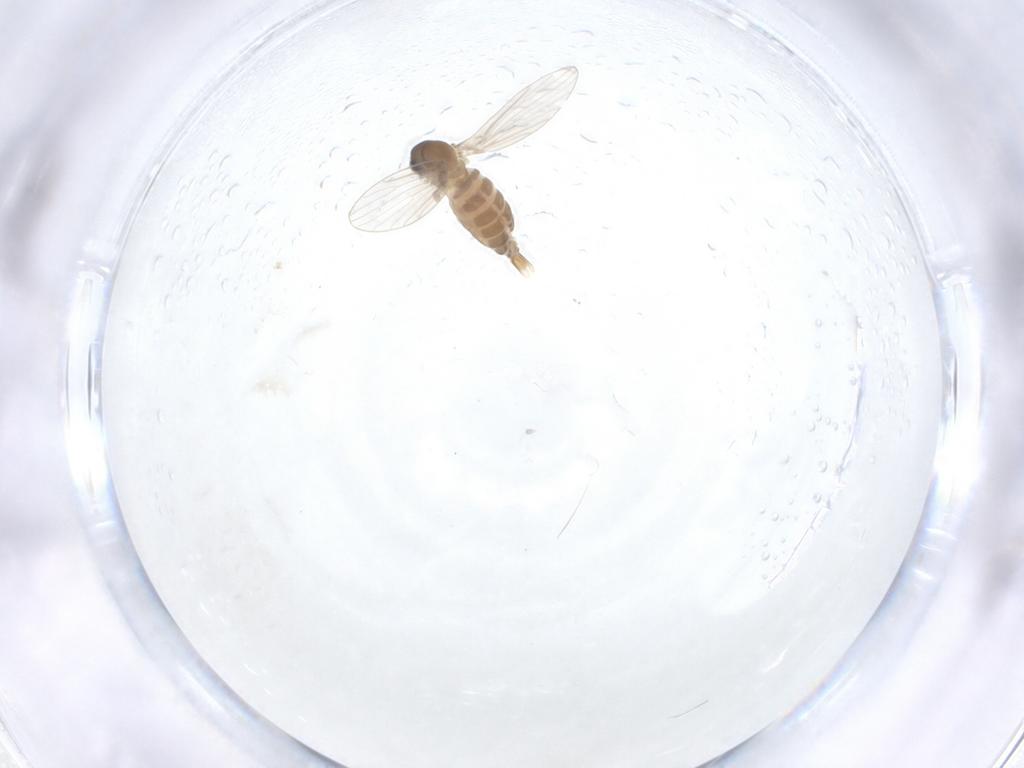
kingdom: Animalia
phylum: Arthropoda
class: Insecta
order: Diptera
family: Cecidomyiidae
